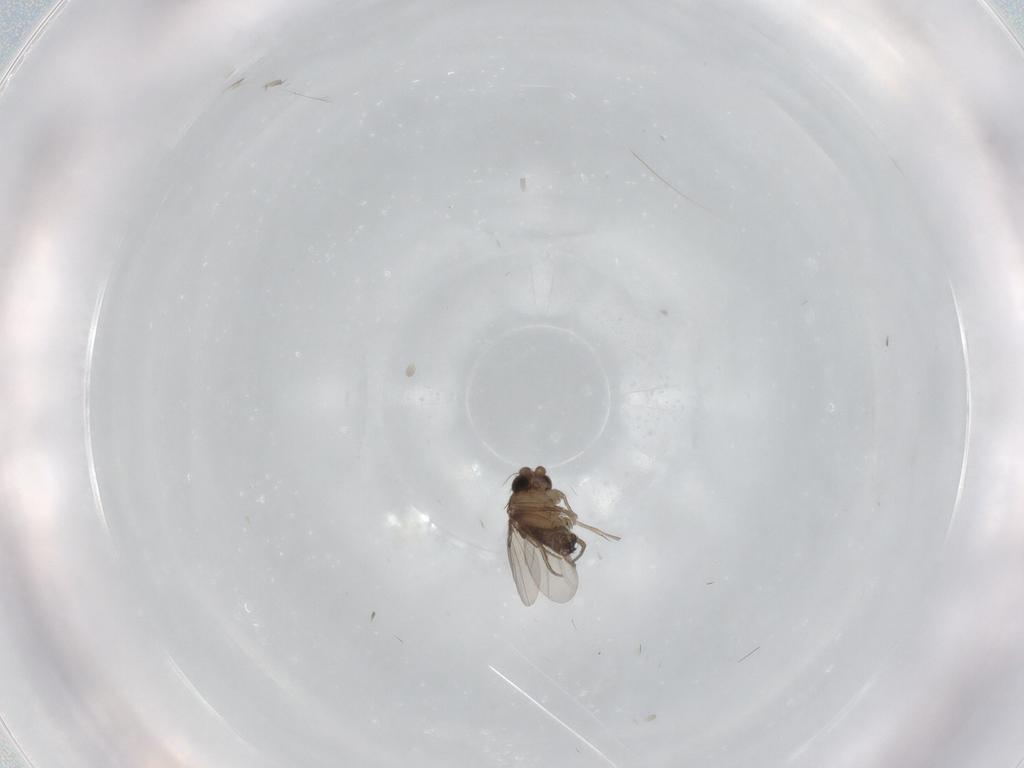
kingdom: Animalia
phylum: Arthropoda
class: Insecta
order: Diptera
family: Phoridae
